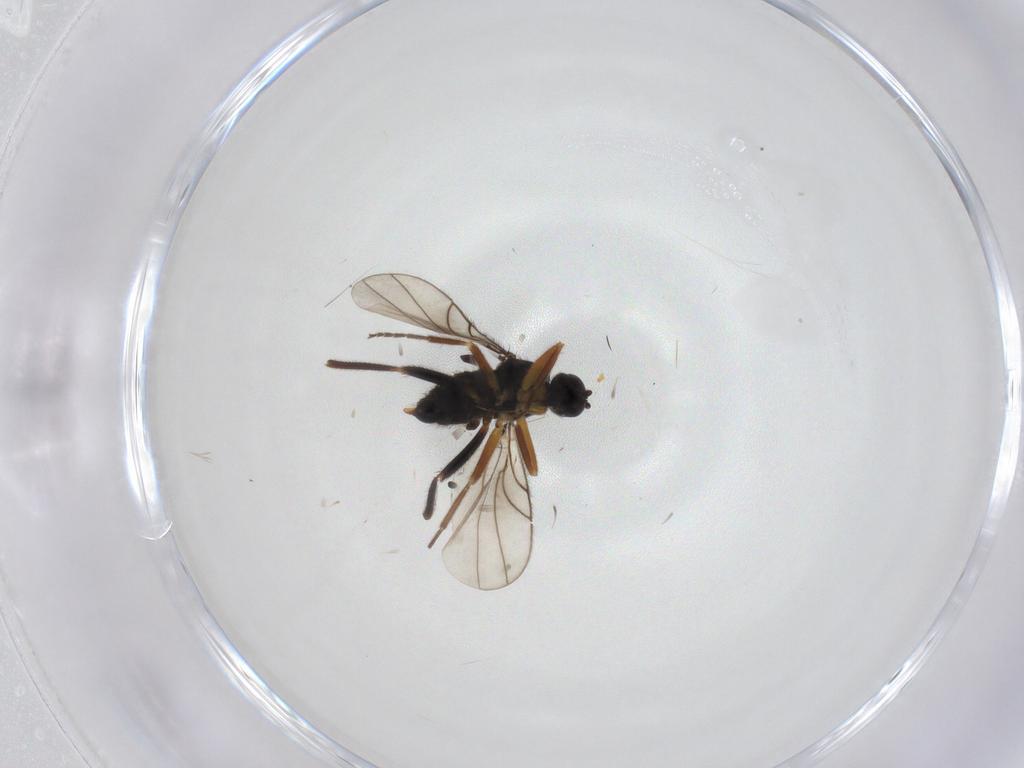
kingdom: Animalia
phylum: Arthropoda
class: Insecta
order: Diptera
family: Hybotidae
